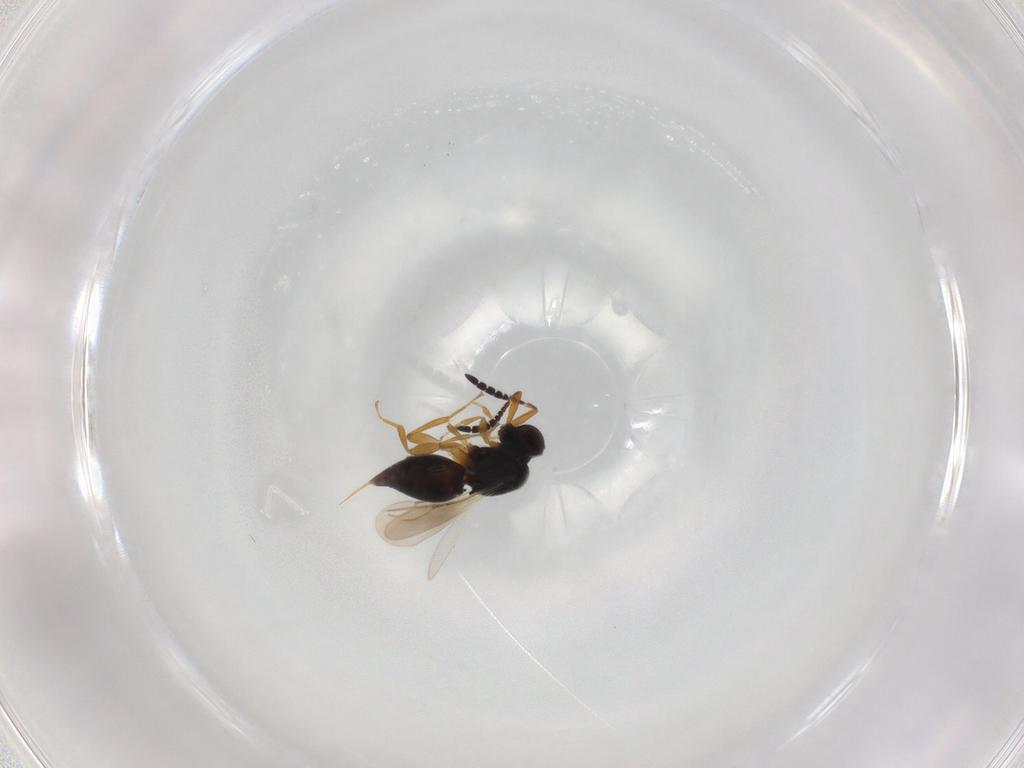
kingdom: Animalia
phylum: Arthropoda
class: Insecta
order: Hymenoptera
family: Ceraphronidae
